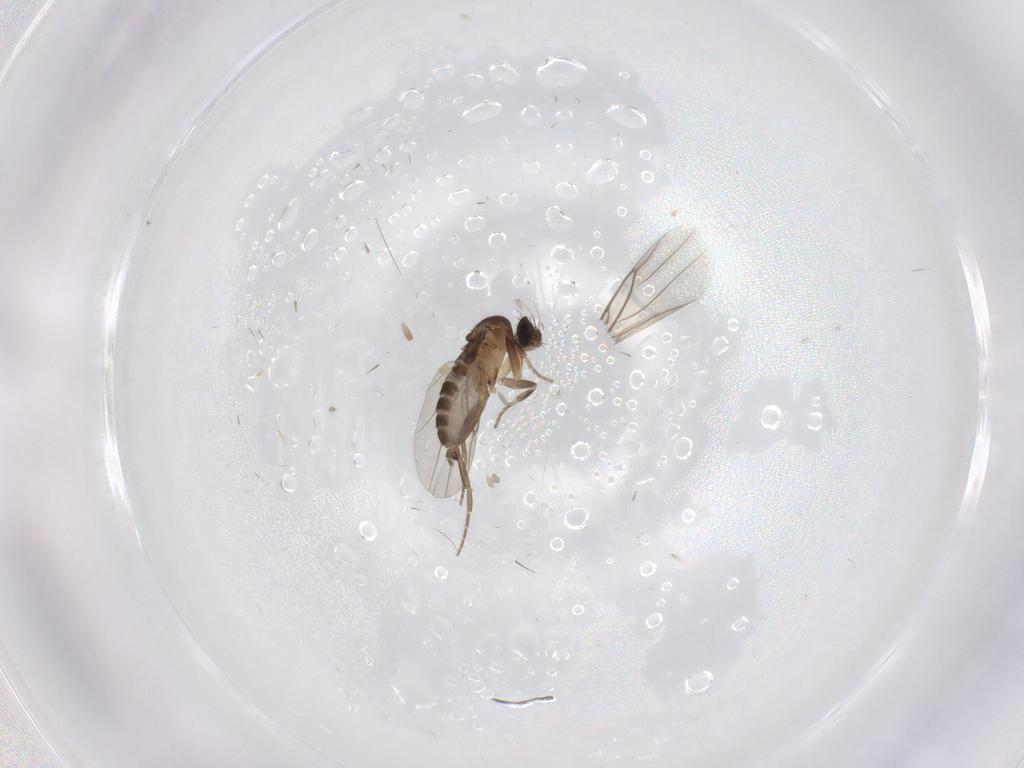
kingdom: Animalia
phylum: Arthropoda
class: Insecta
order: Diptera
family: Phoridae
